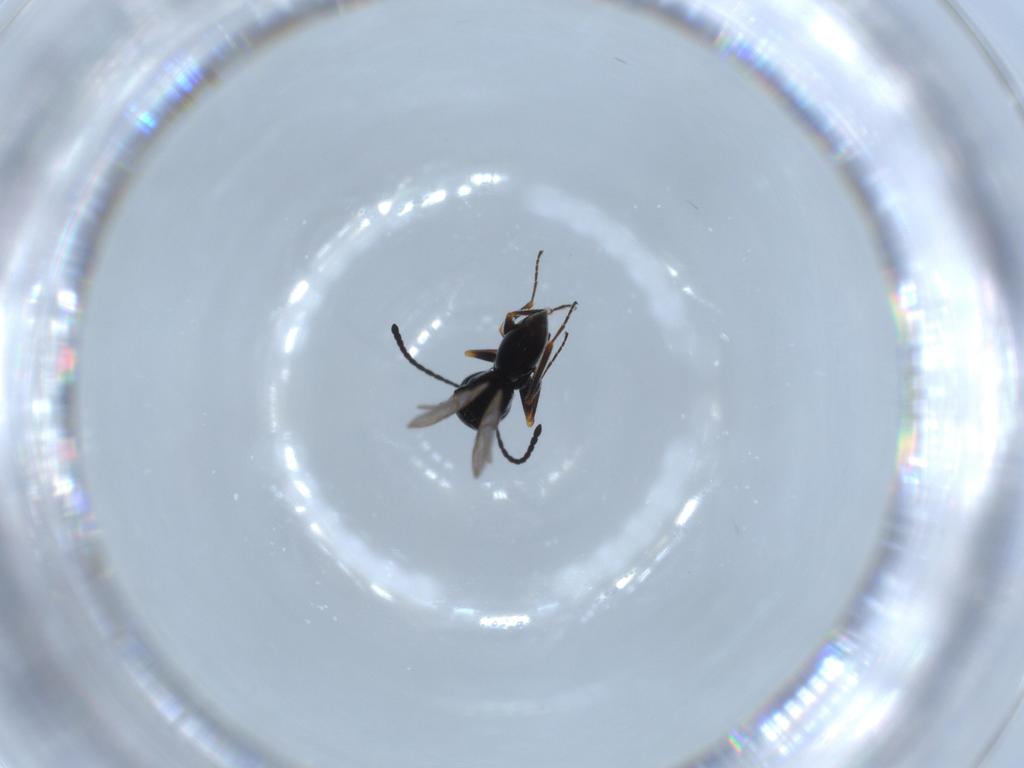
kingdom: Animalia
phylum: Arthropoda
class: Insecta
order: Hymenoptera
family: Figitidae
